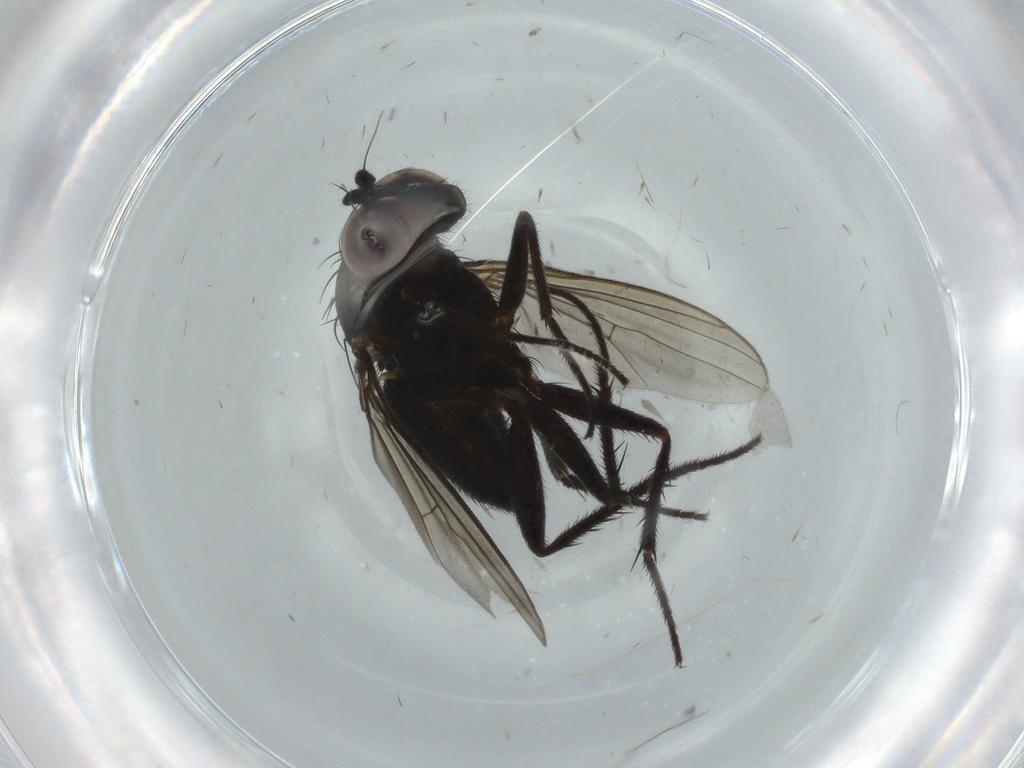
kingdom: Animalia
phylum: Arthropoda
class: Insecta
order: Diptera
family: Dolichopodidae
